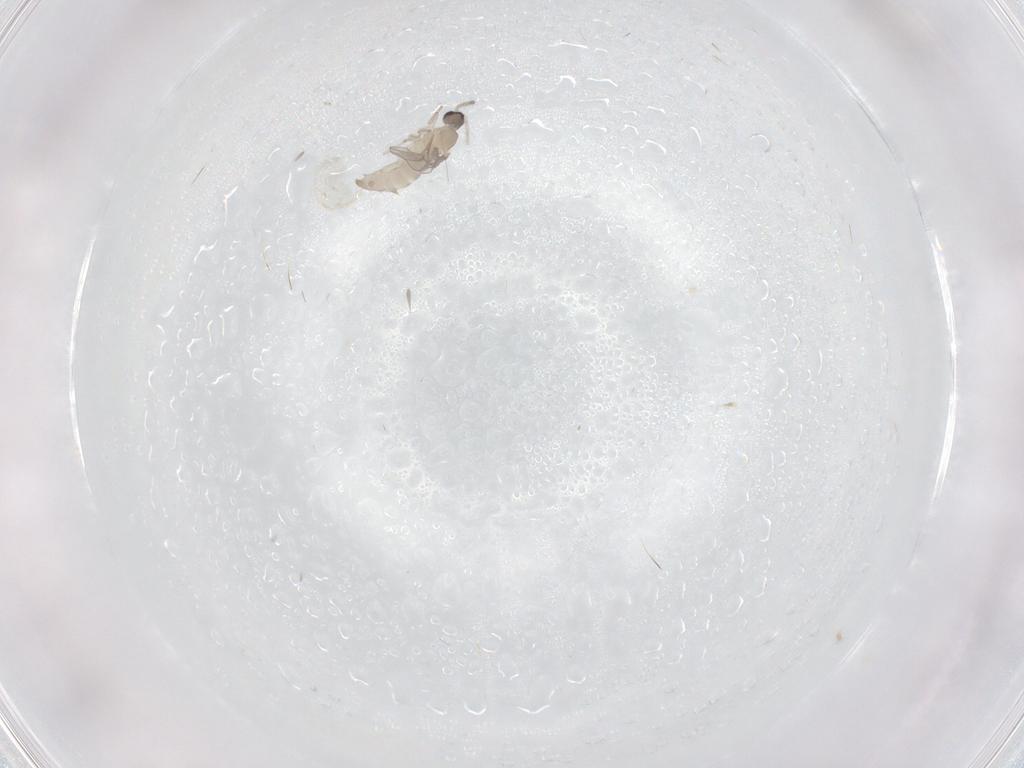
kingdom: Animalia
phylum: Arthropoda
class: Insecta
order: Diptera
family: Cecidomyiidae
